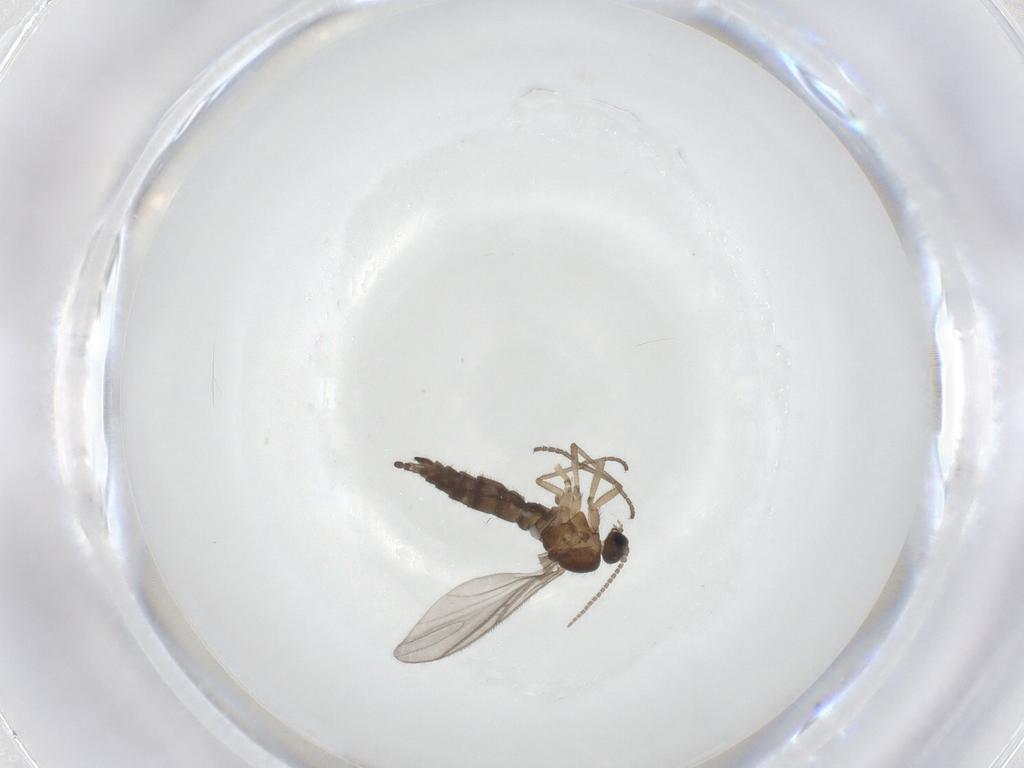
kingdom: Animalia
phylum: Arthropoda
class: Insecta
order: Diptera
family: Sciaridae
